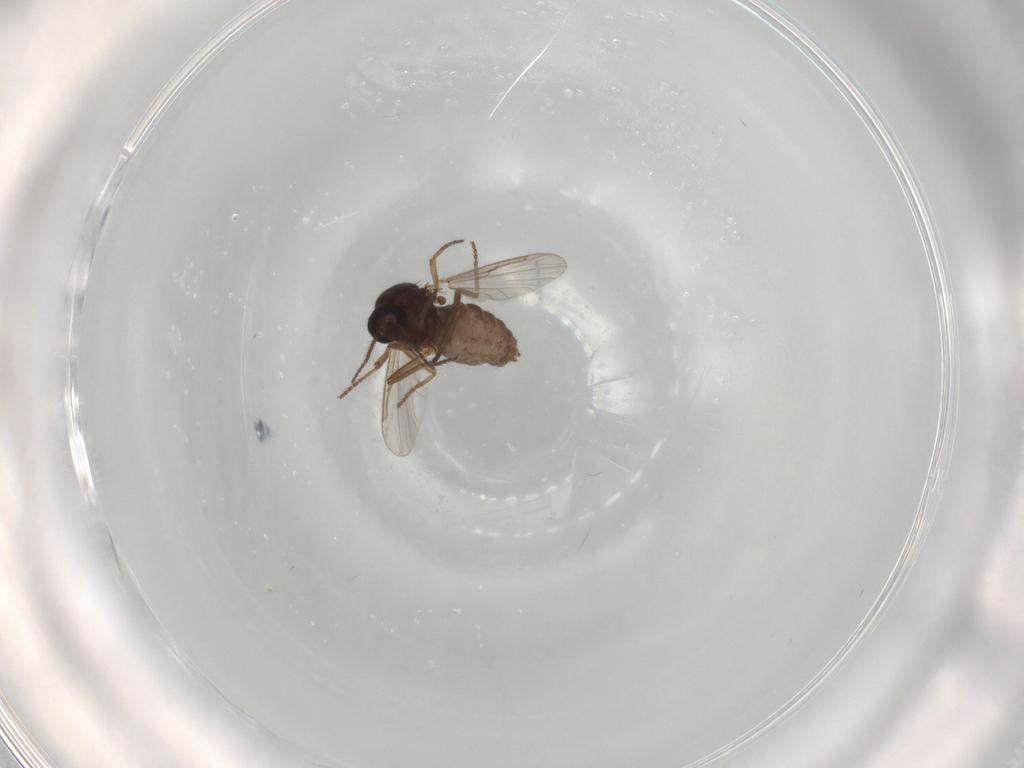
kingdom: Animalia
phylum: Arthropoda
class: Insecta
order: Diptera
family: Ceratopogonidae
